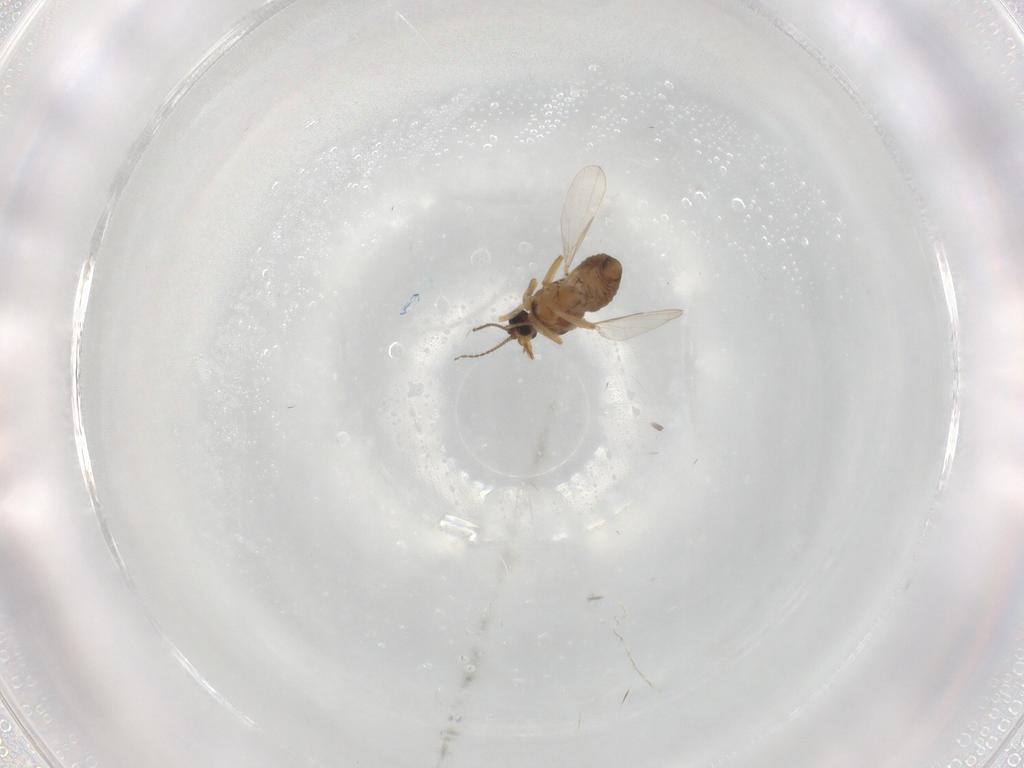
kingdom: Animalia
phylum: Arthropoda
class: Insecta
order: Diptera
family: Ceratopogonidae
